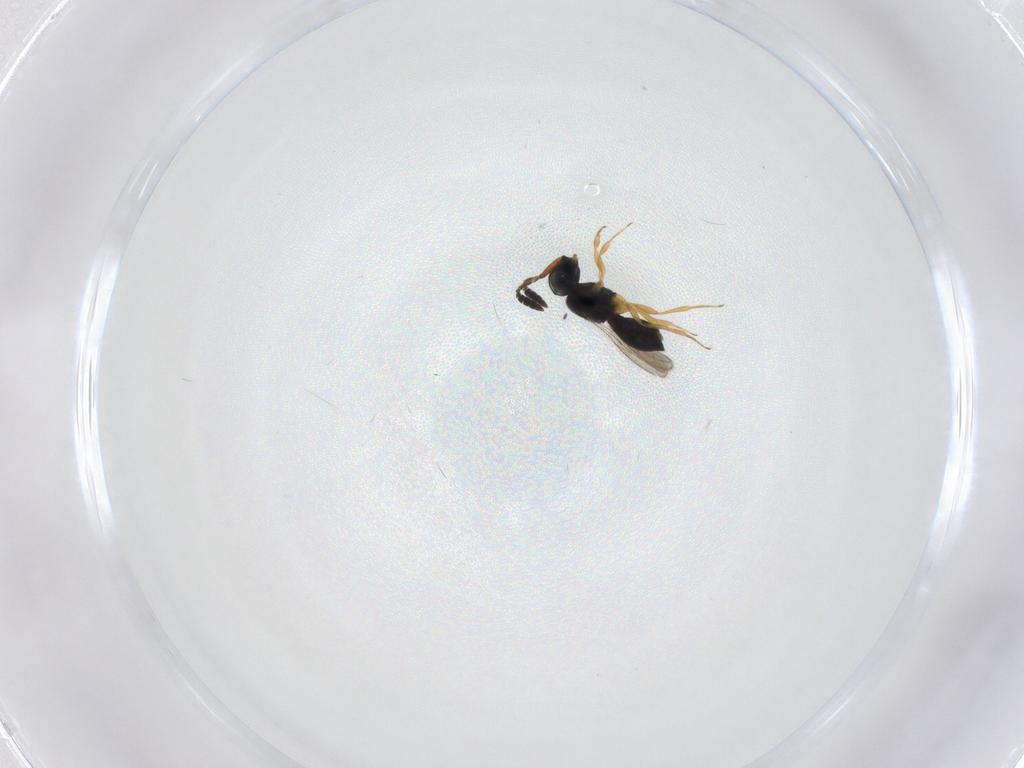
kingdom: Animalia
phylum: Arthropoda
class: Insecta
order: Hymenoptera
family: Scelionidae
